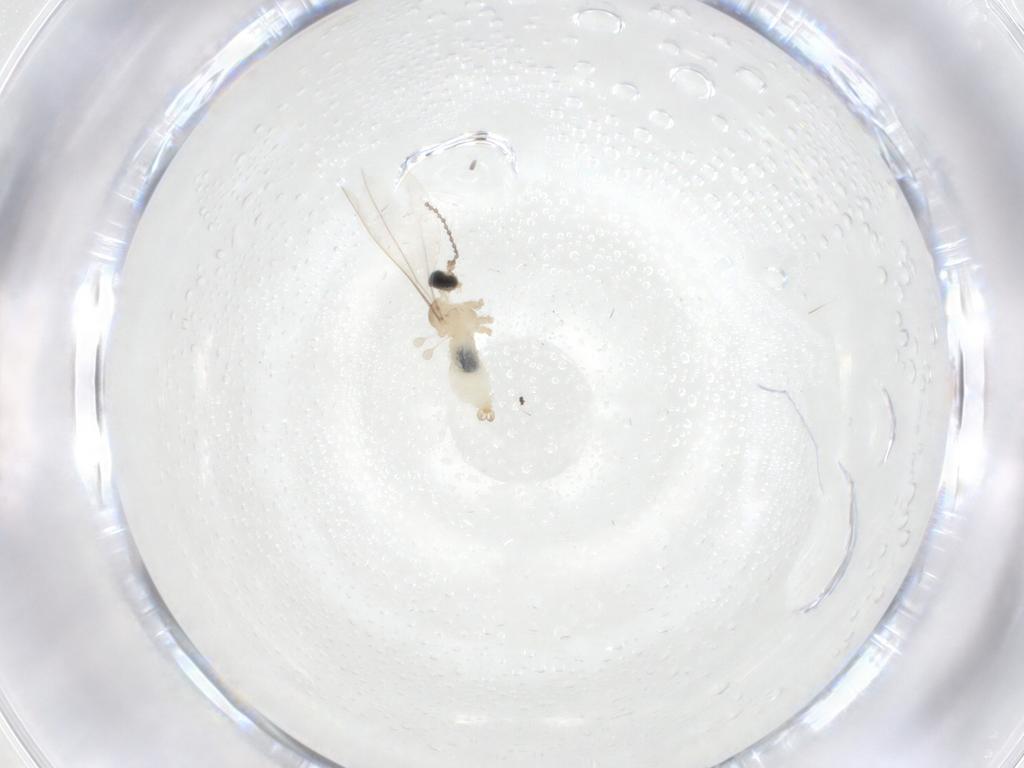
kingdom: Animalia
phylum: Arthropoda
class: Insecta
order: Diptera
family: Cecidomyiidae
